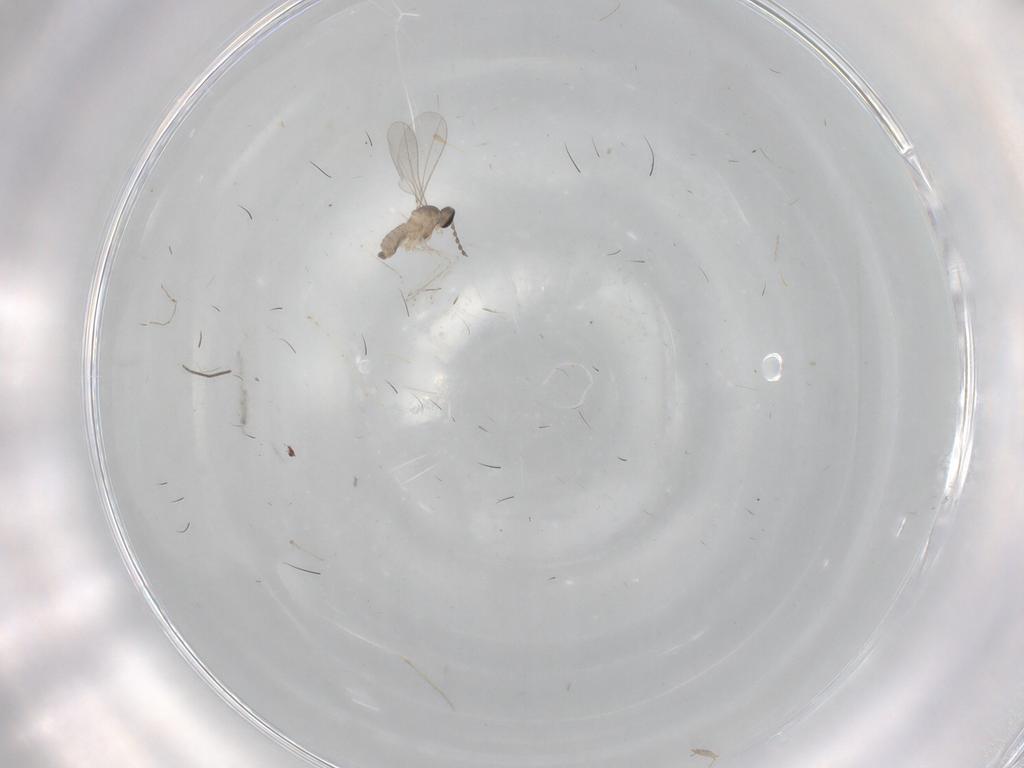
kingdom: Animalia
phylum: Arthropoda
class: Insecta
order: Diptera
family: Cecidomyiidae
